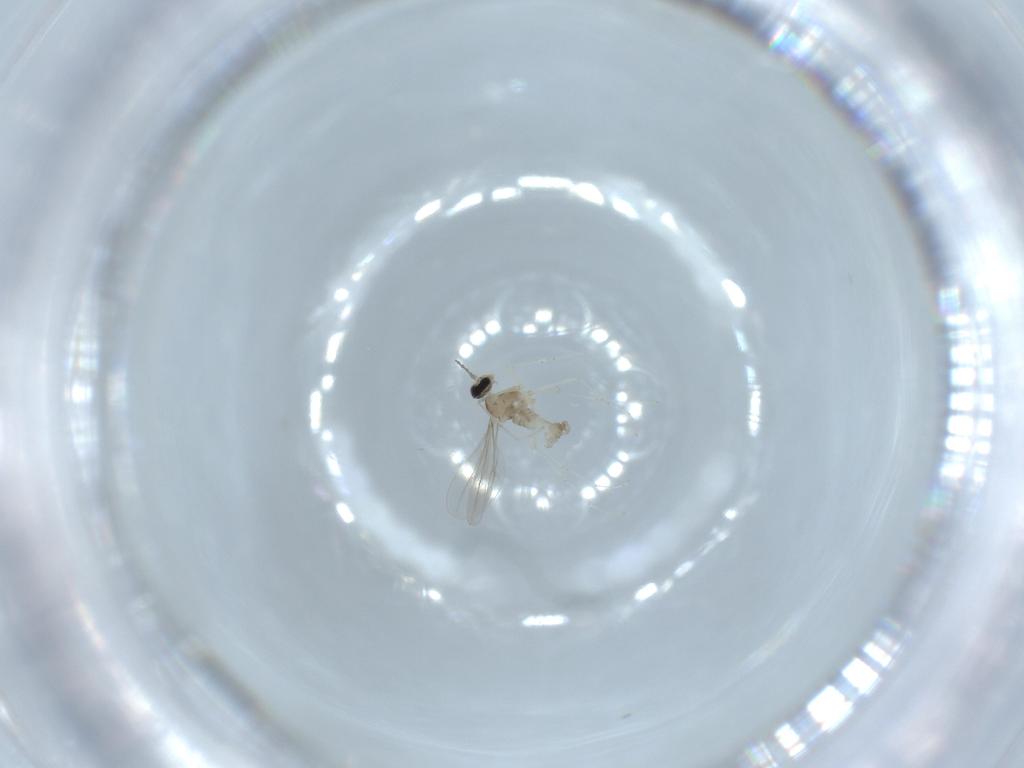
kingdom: Animalia
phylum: Arthropoda
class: Insecta
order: Diptera
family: Cecidomyiidae
